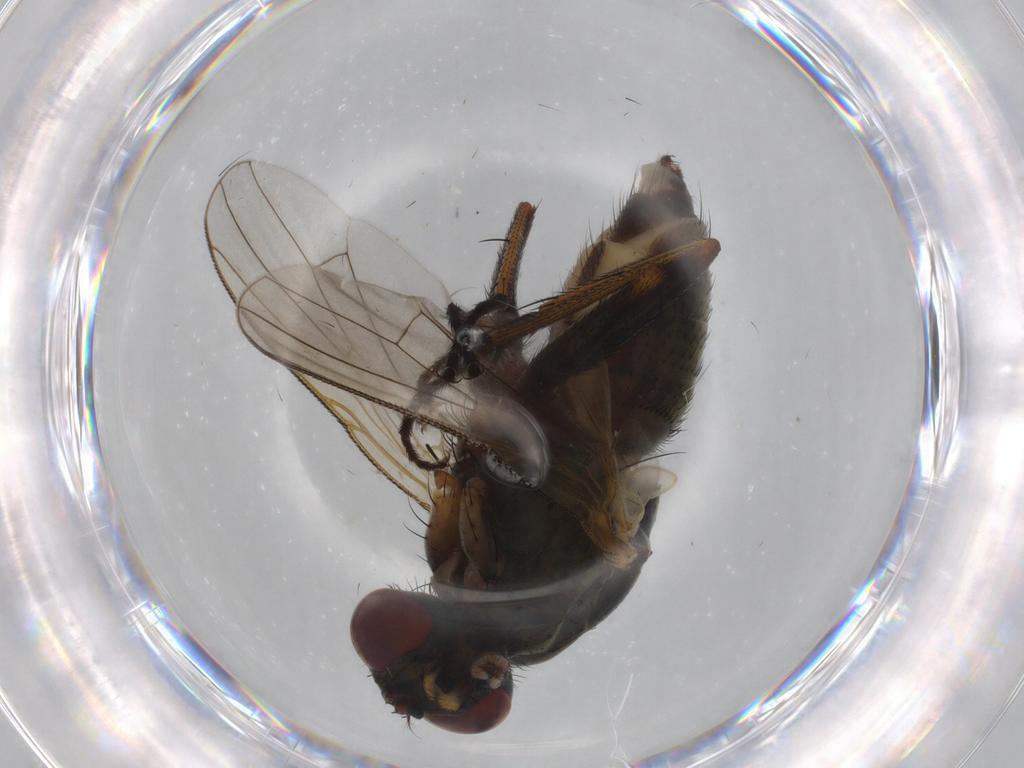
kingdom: Animalia
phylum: Arthropoda
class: Insecta
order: Diptera
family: Muscidae
